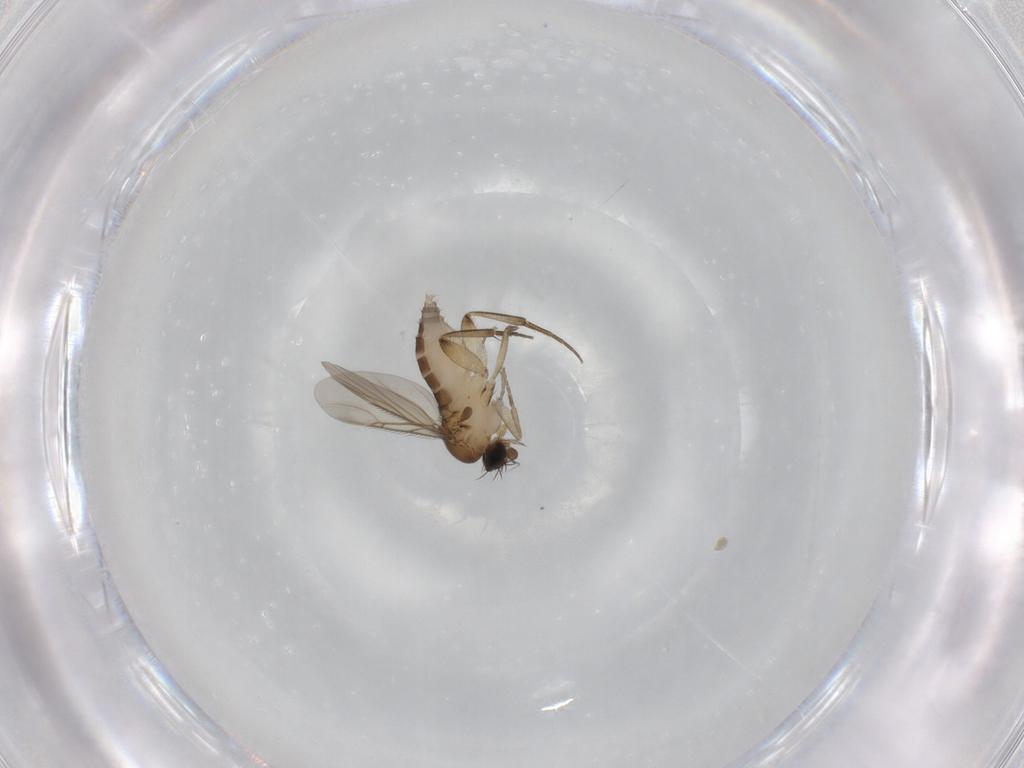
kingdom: Animalia
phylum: Arthropoda
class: Insecta
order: Diptera
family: Phoridae
